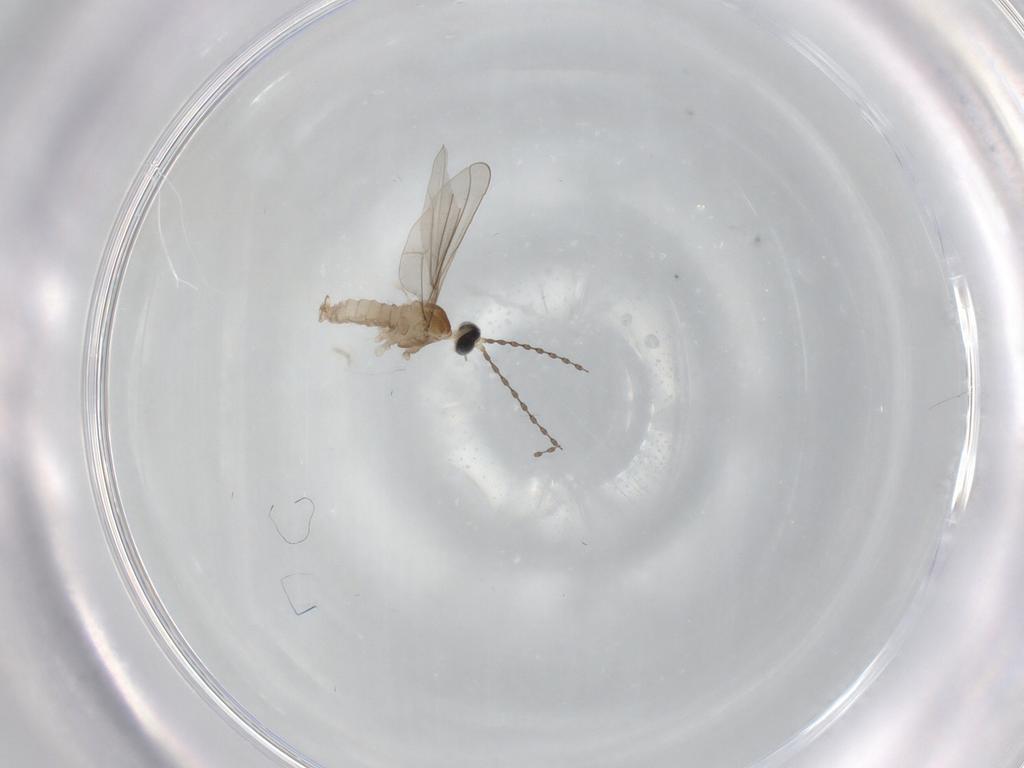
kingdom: Animalia
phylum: Arthropoda
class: Insecta
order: Diptera
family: Cecidomyiidae
